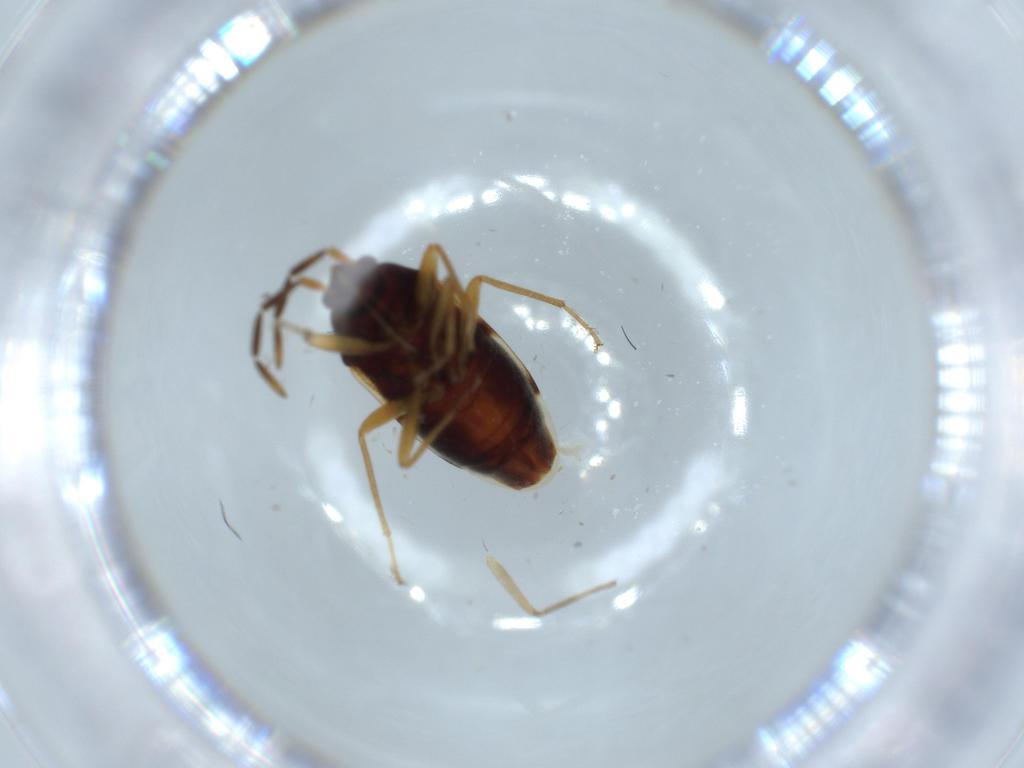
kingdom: Animalia
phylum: Arthropoda
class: Insecta
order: Hemiptera
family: Rhyparochromidae
